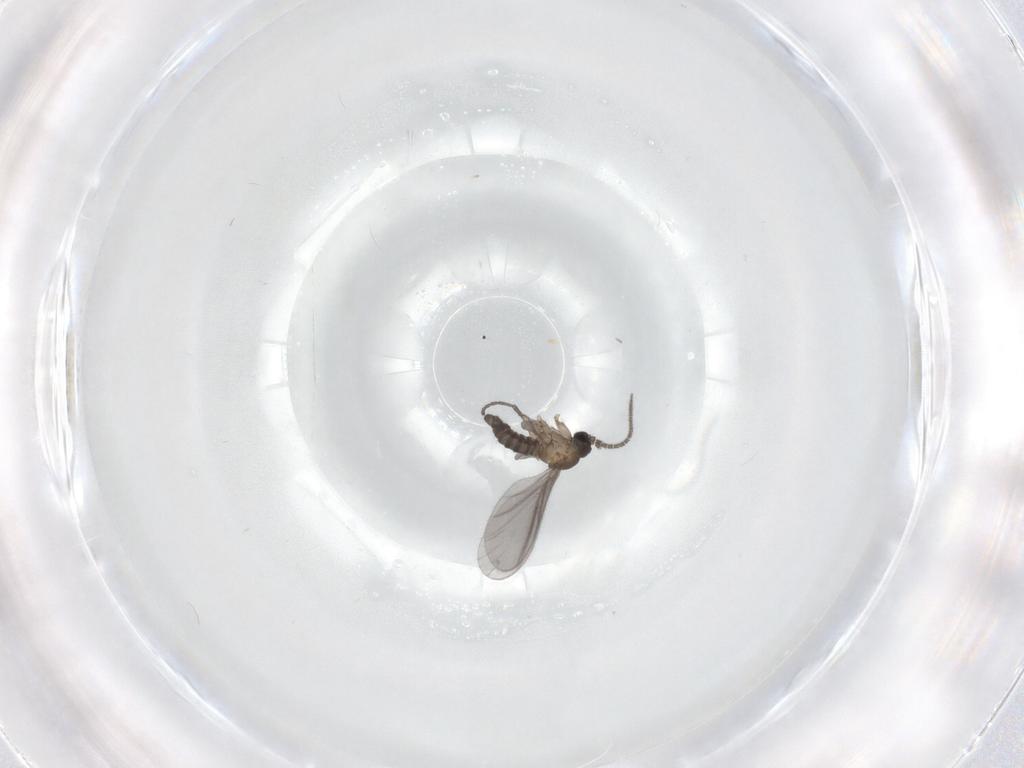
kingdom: Animalia
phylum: Arthropoda
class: Insecta
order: Diptera
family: Sciaridae
